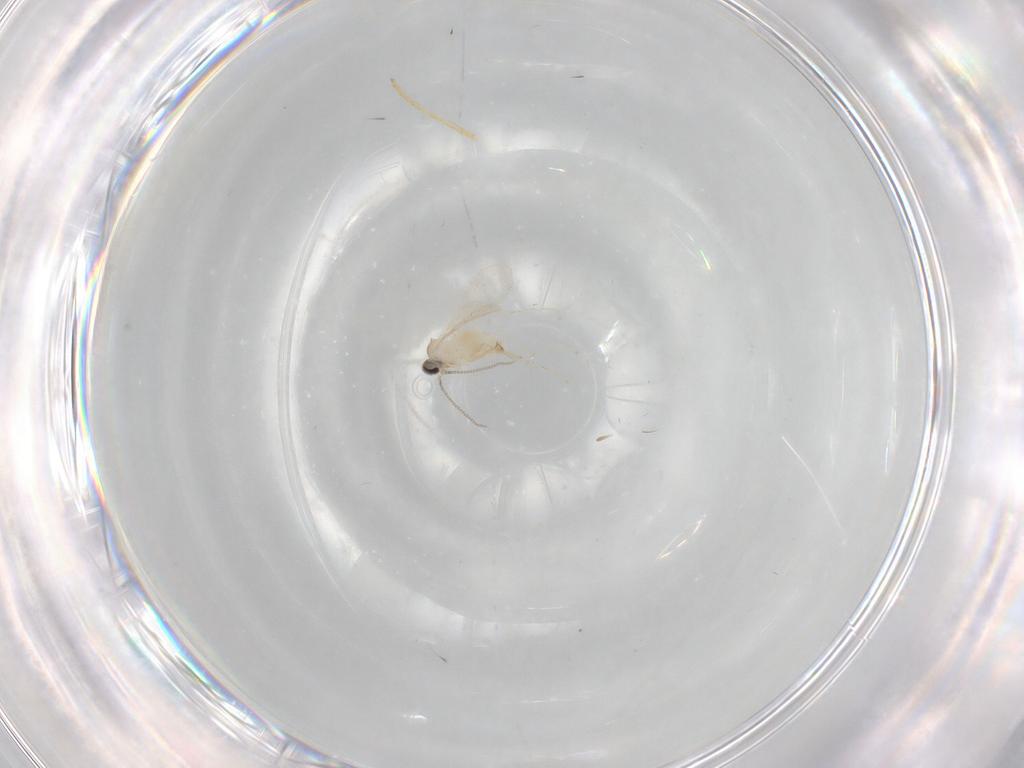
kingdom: Animalia
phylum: Arthropoda
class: Insecta
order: Diptera
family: Cecidomyiidae
